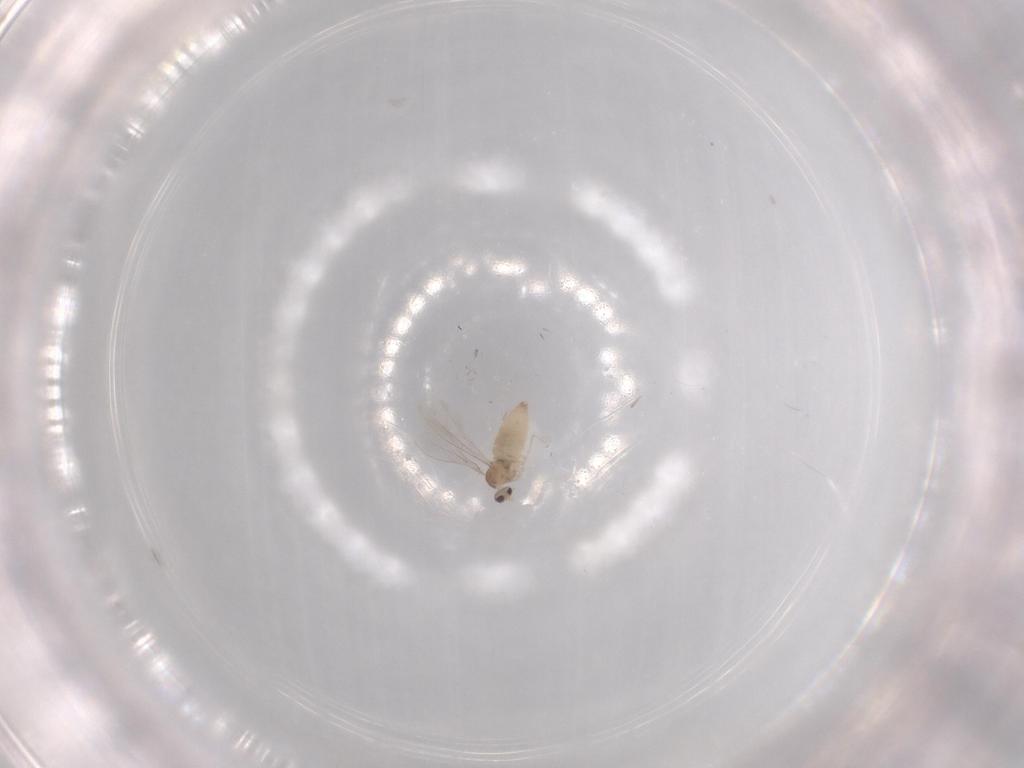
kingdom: Animalia
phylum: Arthropoda
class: Insecta
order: Diptera
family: Cecidomyiidae
